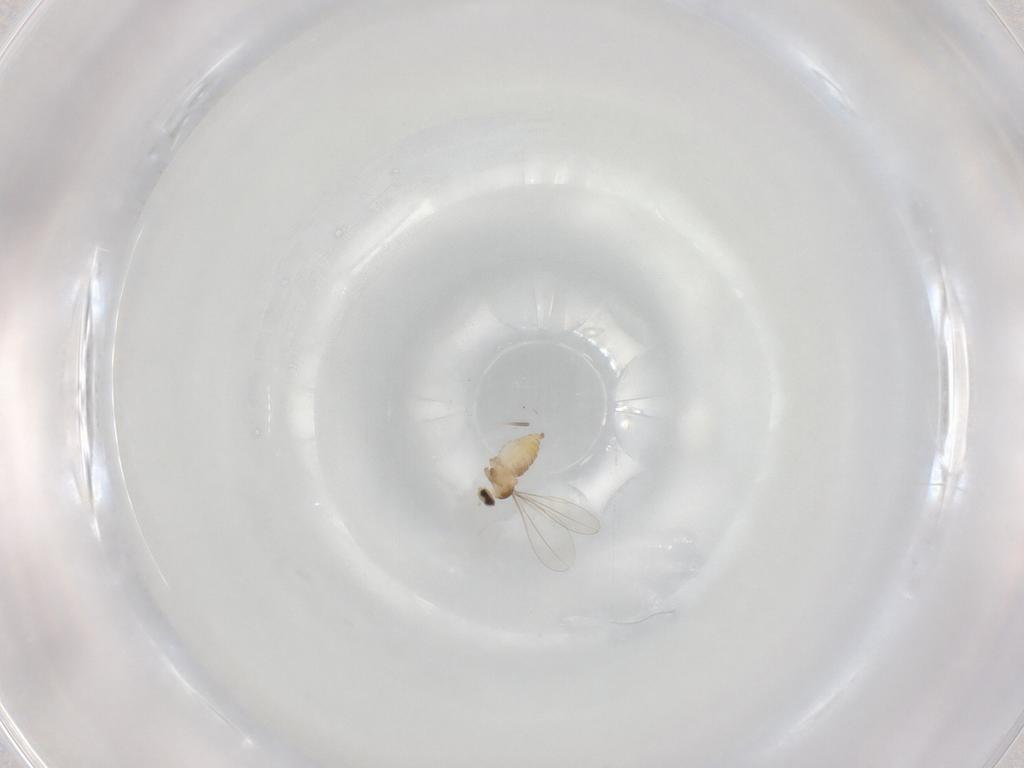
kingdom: Animalia
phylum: Arthropoda
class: Insecta
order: Diptera
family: Cecidomyiidae
